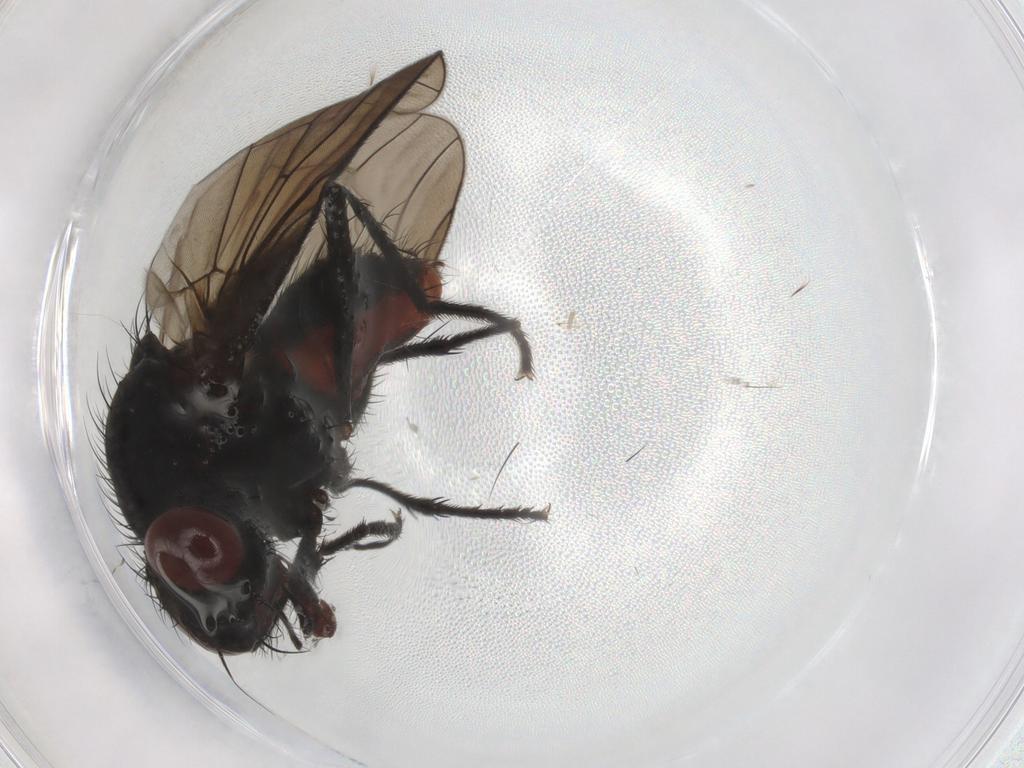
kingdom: Animalia
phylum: Arthropoda
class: Insecta
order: Diptera
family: Anthomyiidae
